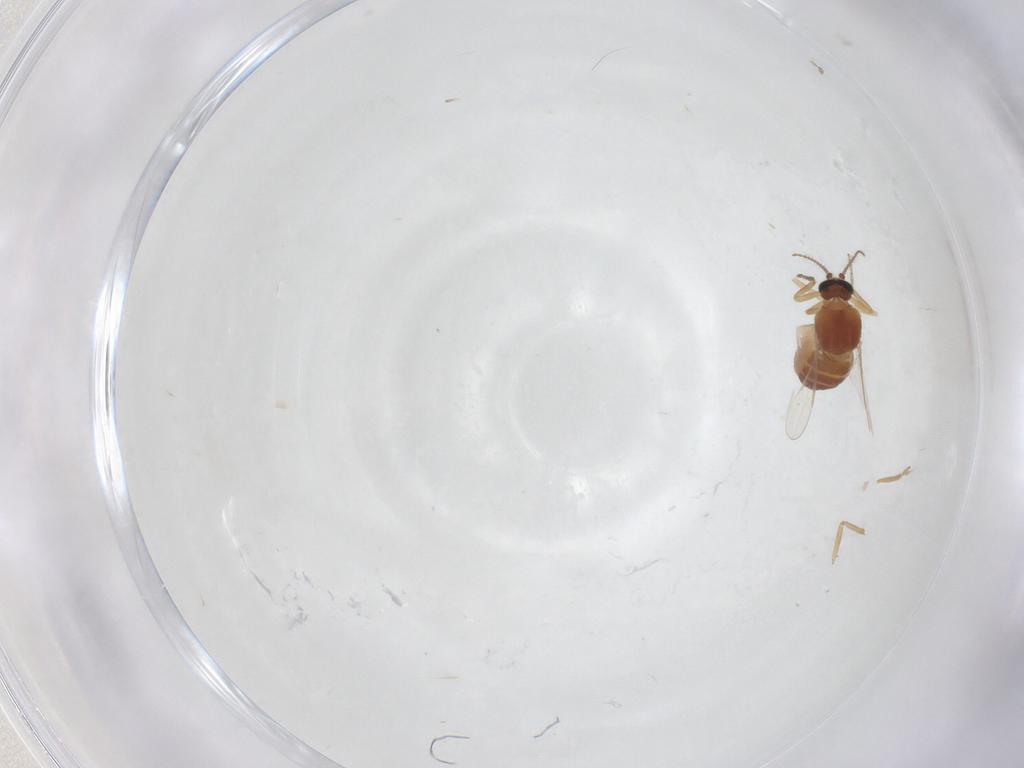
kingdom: Animalia
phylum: Arthropoda
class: Insecta
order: Diptera
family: Ceratopogonidae
